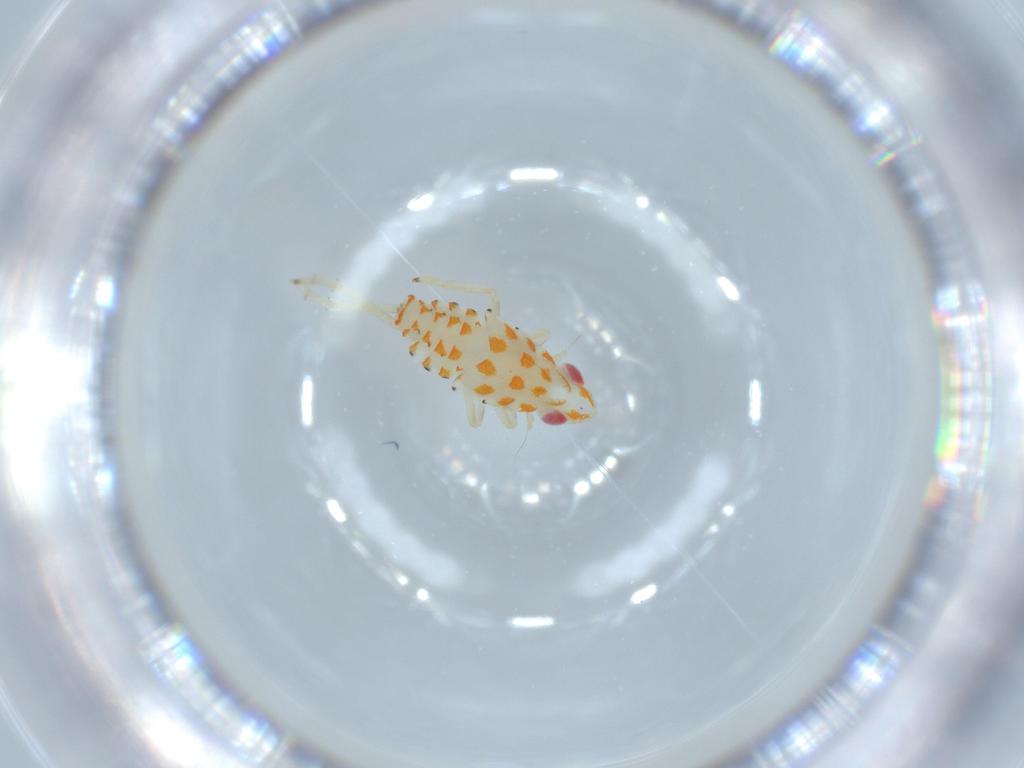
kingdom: Animalia
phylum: Arthropoda
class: Insecta
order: Hemiptera
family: Tropiduchidae
